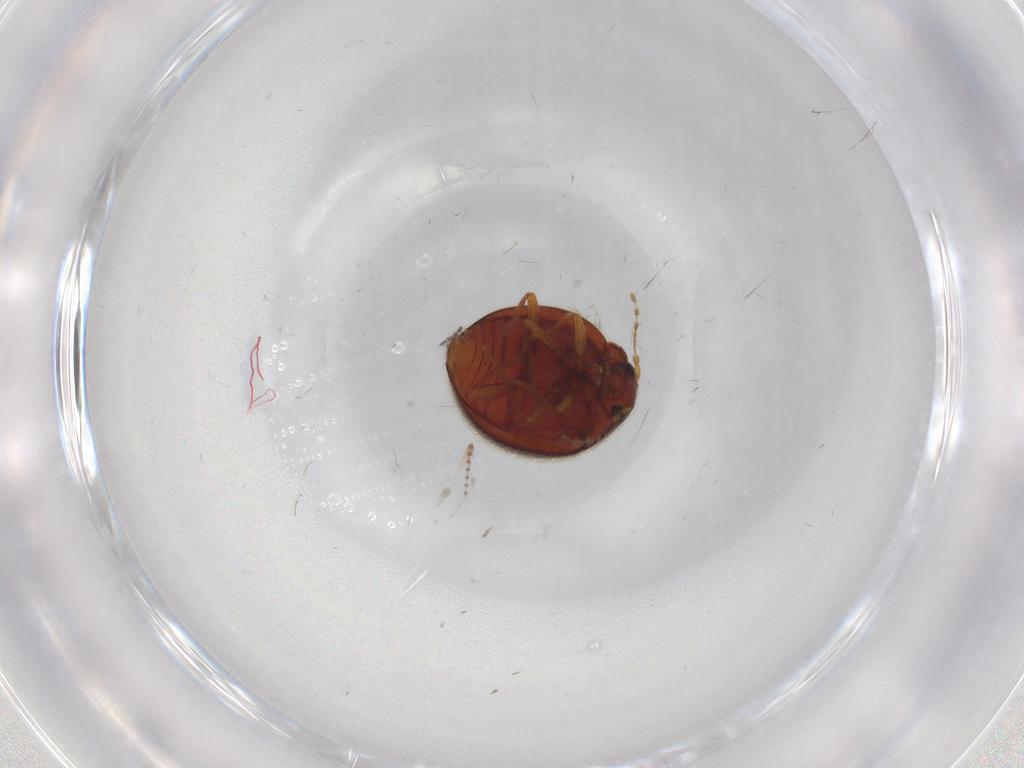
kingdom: Animalia
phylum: Arthropoda
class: Insecta
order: Coleoptera
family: Anamorphidae
